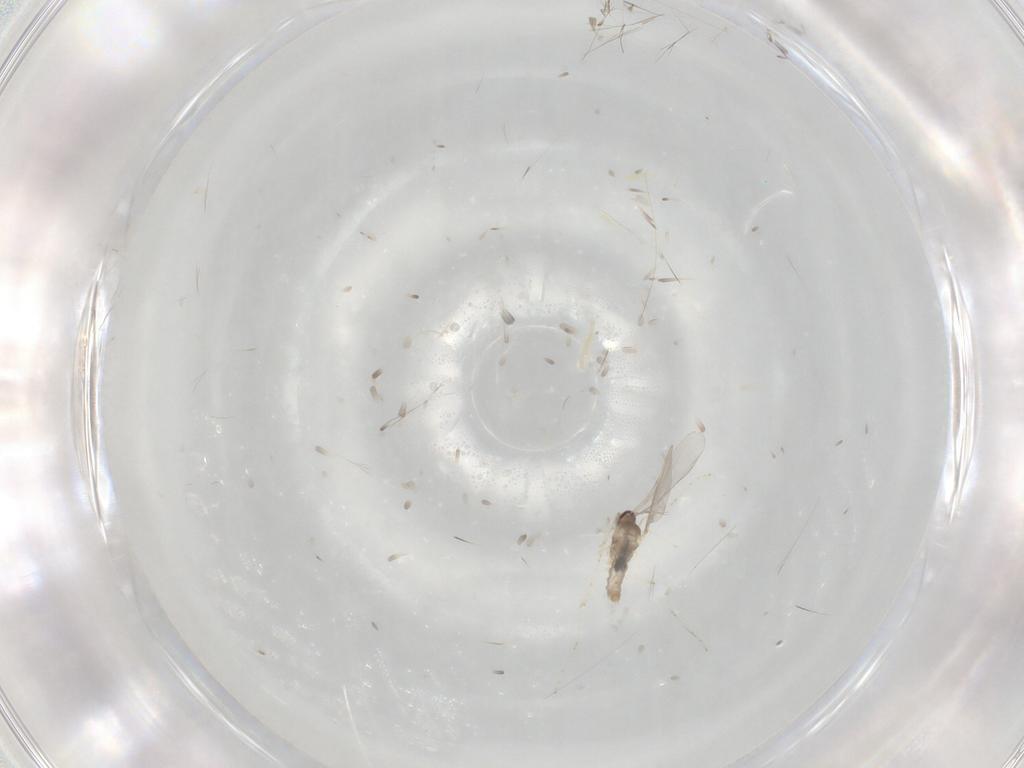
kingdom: Animalia
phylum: Arthropoda
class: Insecta
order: Diptera
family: Cecidomyiidae
